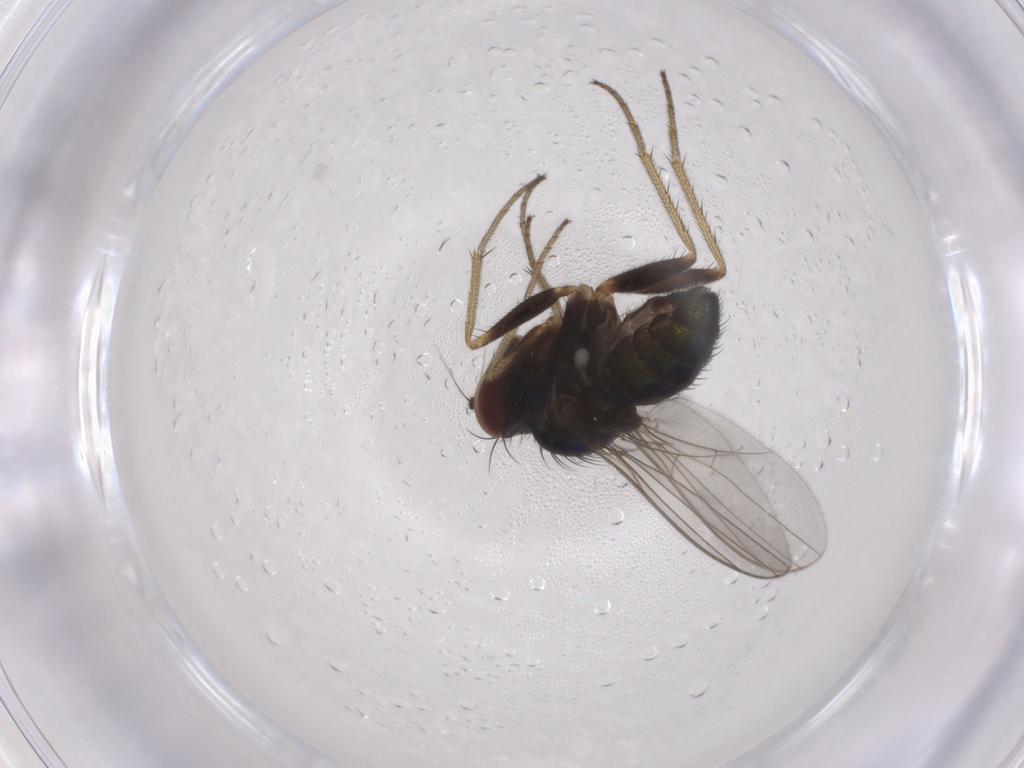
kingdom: Animalia
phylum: Arthropoda
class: Insecta
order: Diptera
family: Limoniidae
